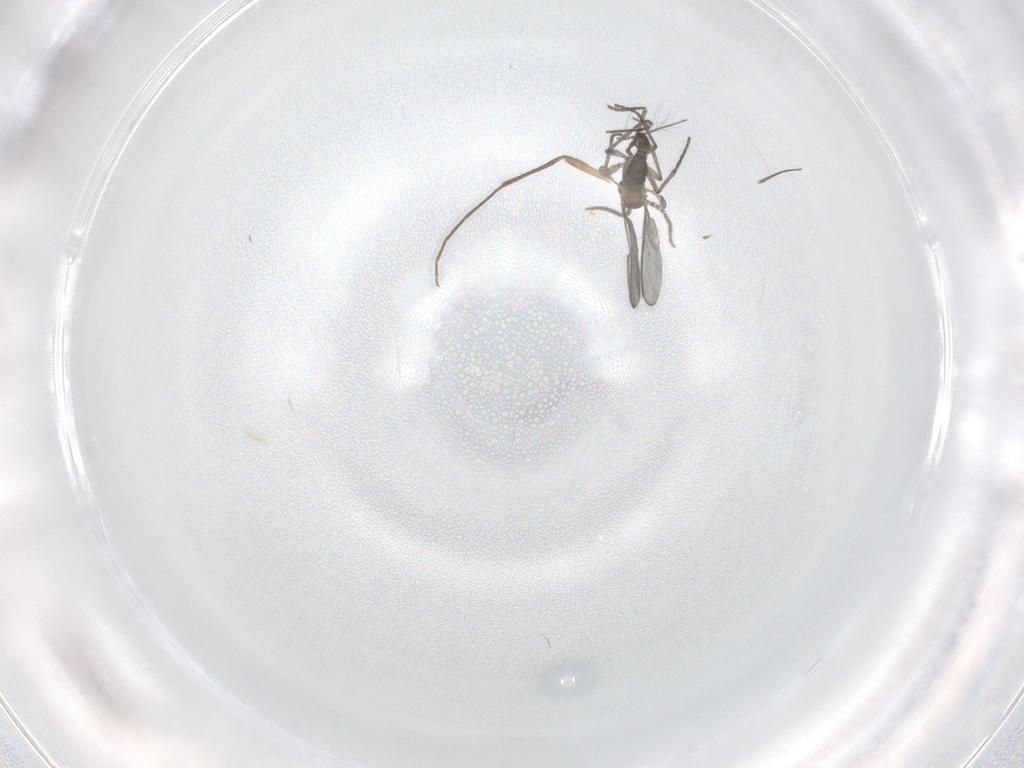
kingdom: Animalia
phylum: Arthropoda
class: Insecta
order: Diptera
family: Chironomidae
